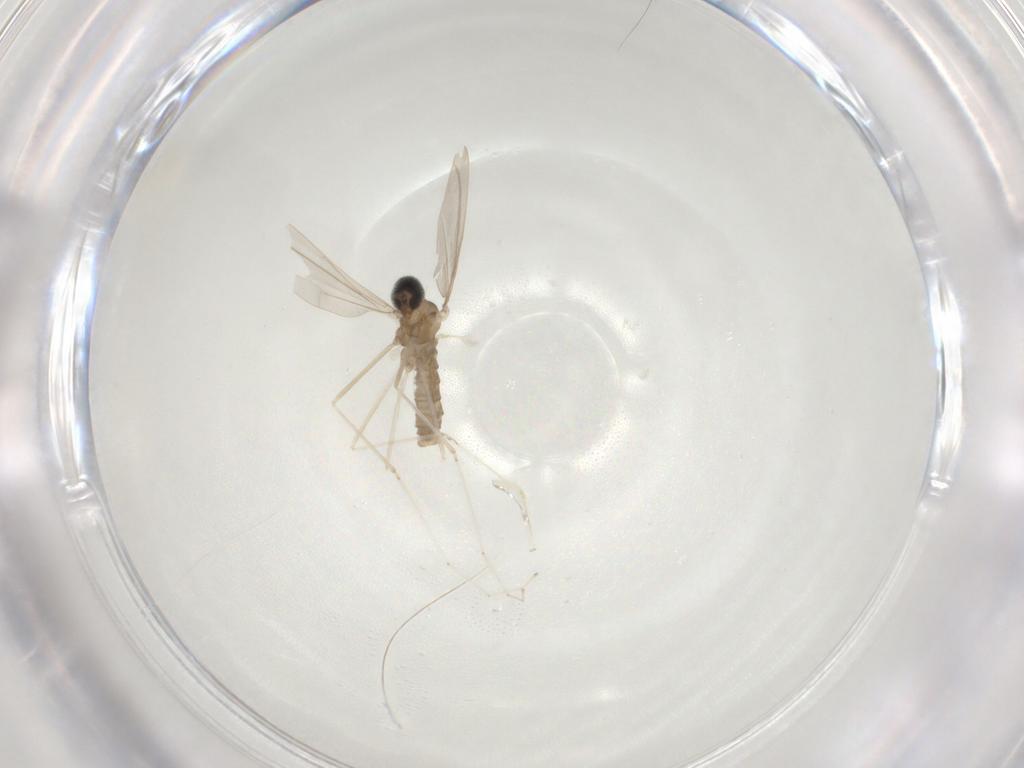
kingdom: Animalia
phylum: Arthropoda
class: Insecta
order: Diptera
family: Cecidomyiidae
